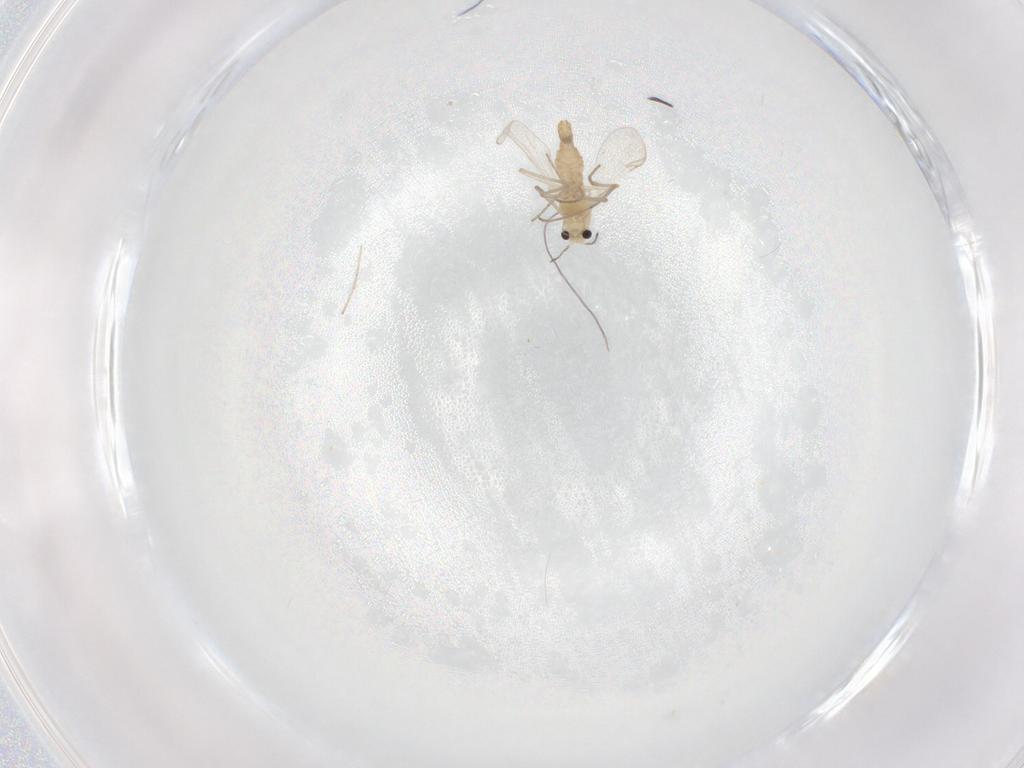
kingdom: Animalia
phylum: Arthropoda
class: Insecta
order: Diptera
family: Chironomidae
